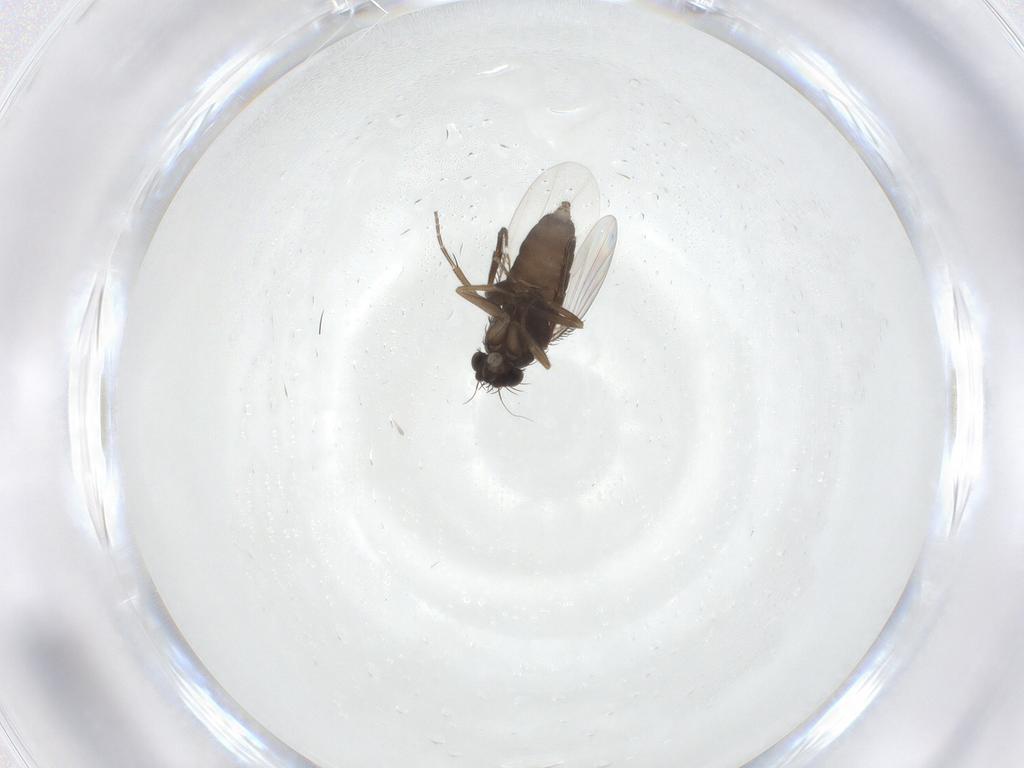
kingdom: Animalia
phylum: Arthropoda
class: Insecta
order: Diptera
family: Phoridae
